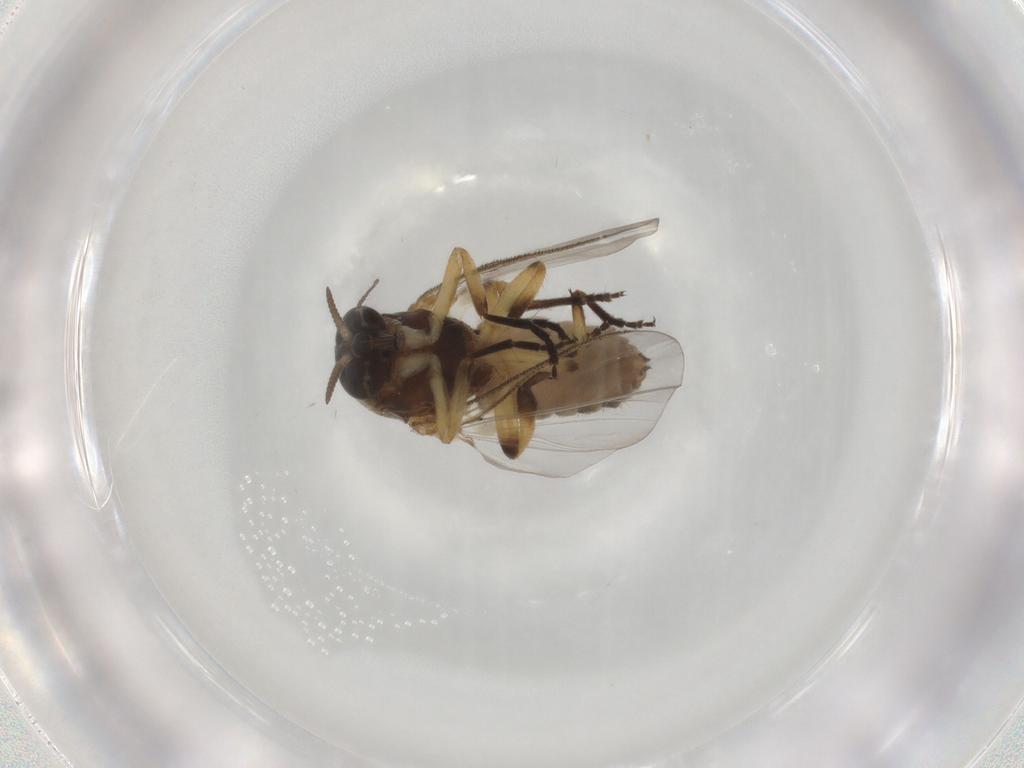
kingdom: Animalia
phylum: Arthropoda
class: Insecta
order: Diptera
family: Phoridae
